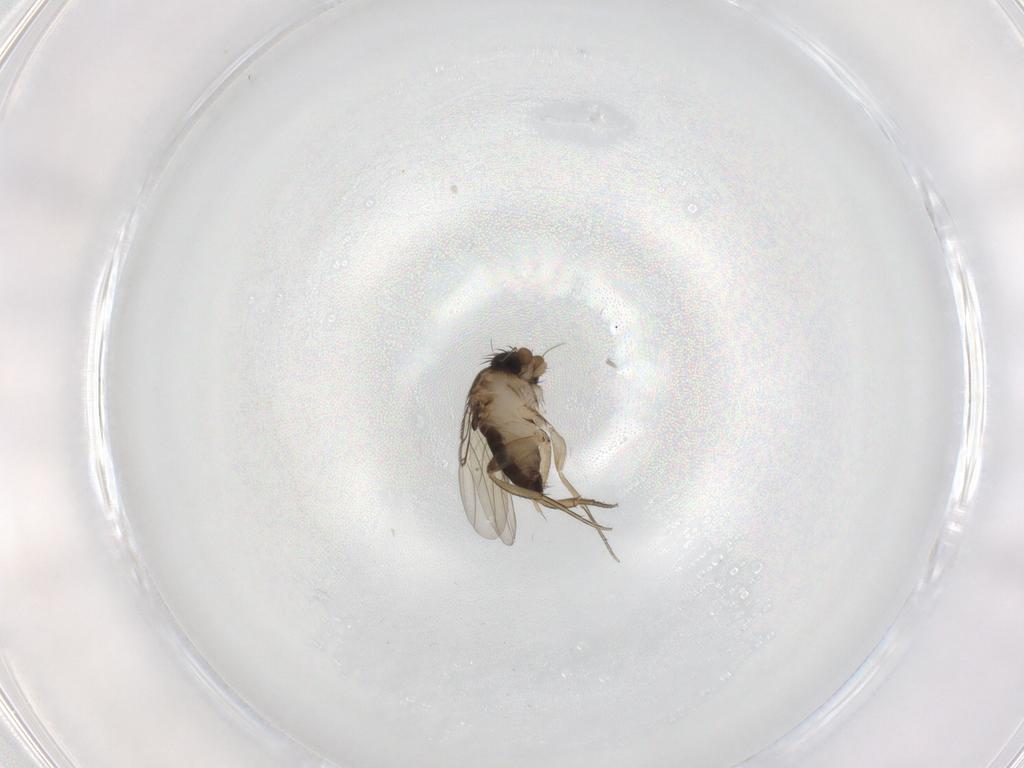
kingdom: Animalia
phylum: Arthropoda
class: Insecta
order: Diptera
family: Phoridae
